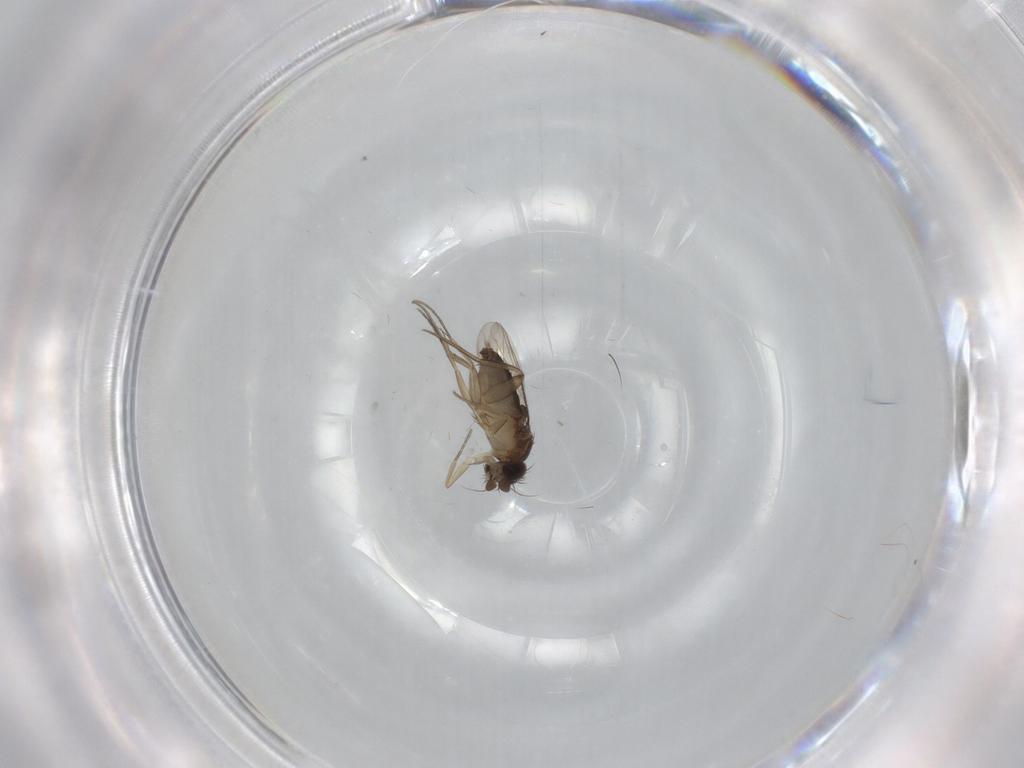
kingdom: Animalia
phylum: Arthropoda
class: Insecta
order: Diptera
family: Phoridae
